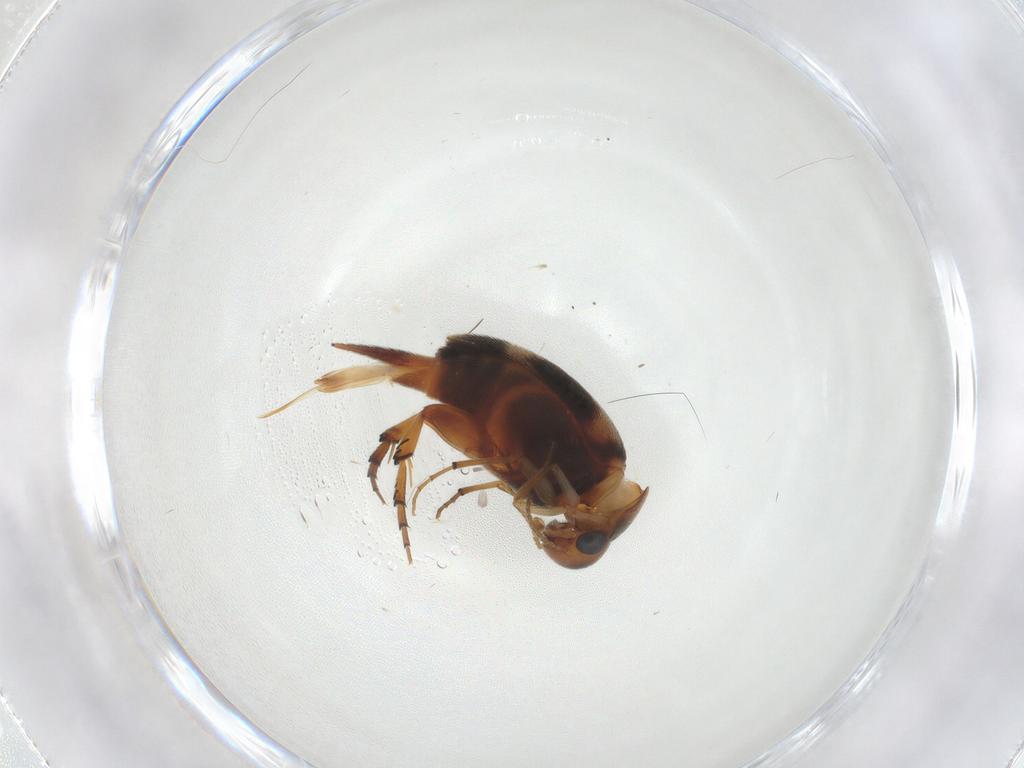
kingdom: Animalia
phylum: Arthropoda
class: Insecta
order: Coleoptera
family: Mordellidae
